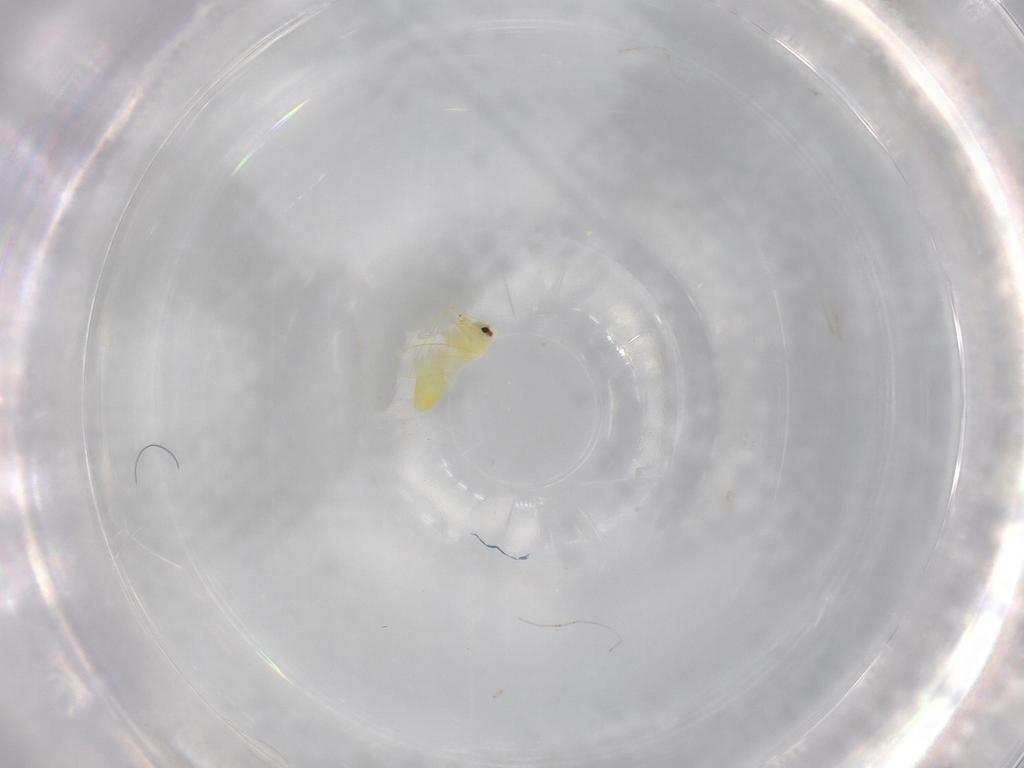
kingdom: Animalia
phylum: Arthropoda
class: Insecta
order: Hemiptera
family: Aleyrodidae
